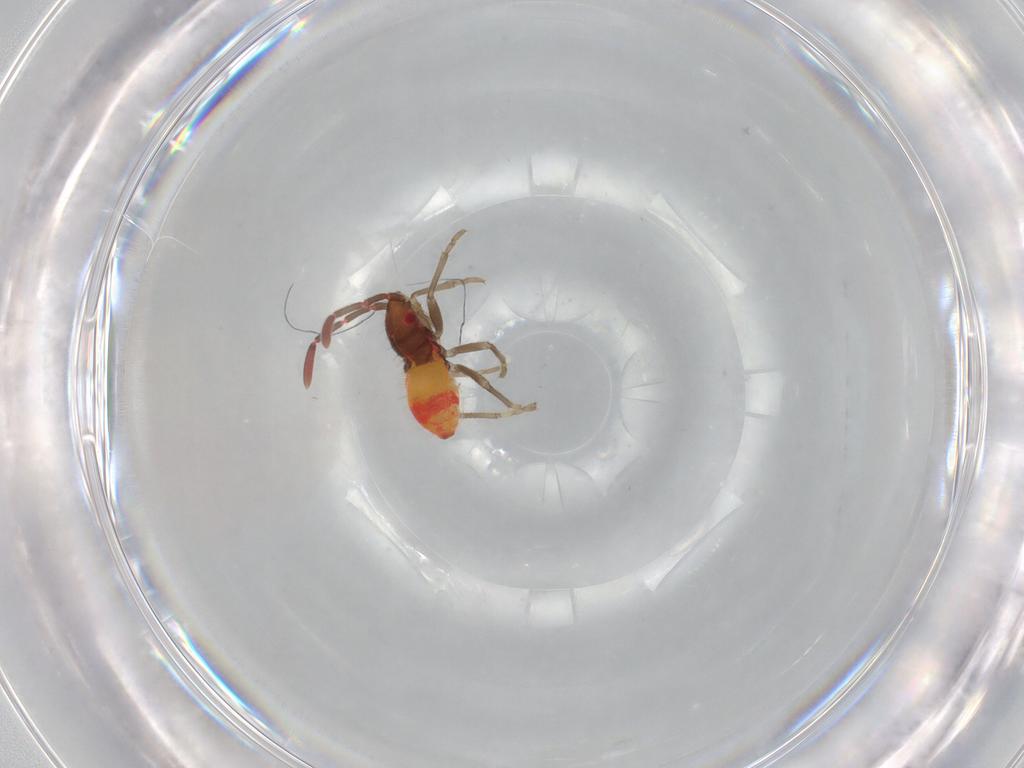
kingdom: Animalia
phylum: Arthropoda
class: Insecta
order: Hemiptera
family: Rhyparochromidae
